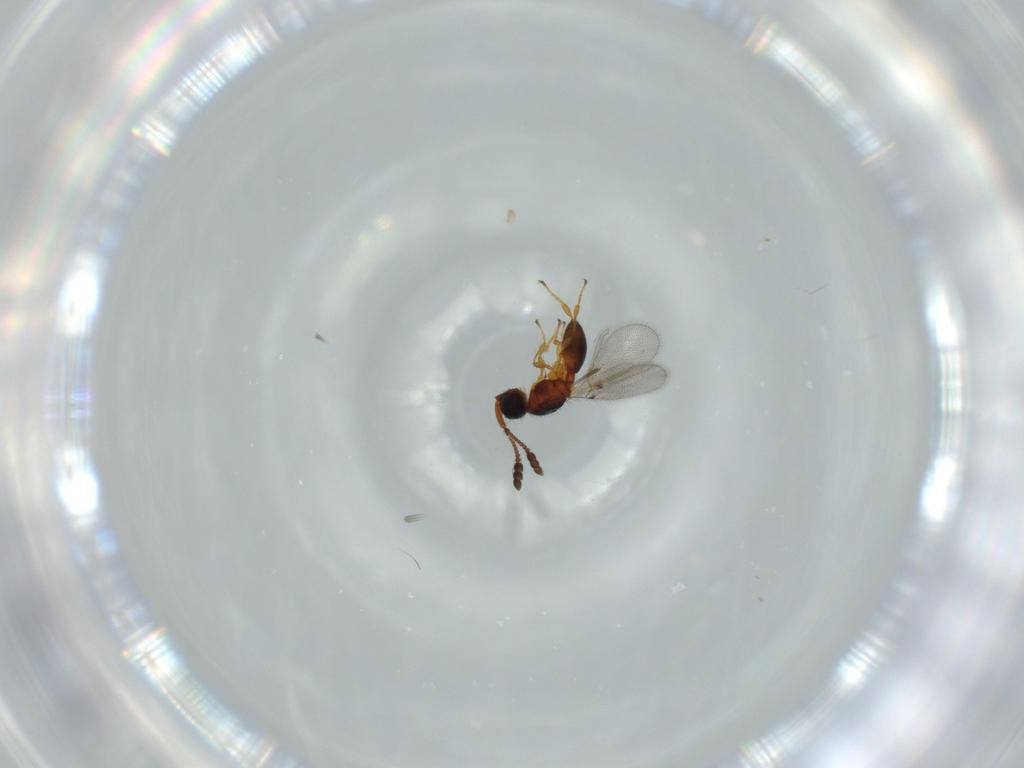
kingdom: Animalia
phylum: Arthropoda
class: Insecta
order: Hymenoptera
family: Diapriidae
